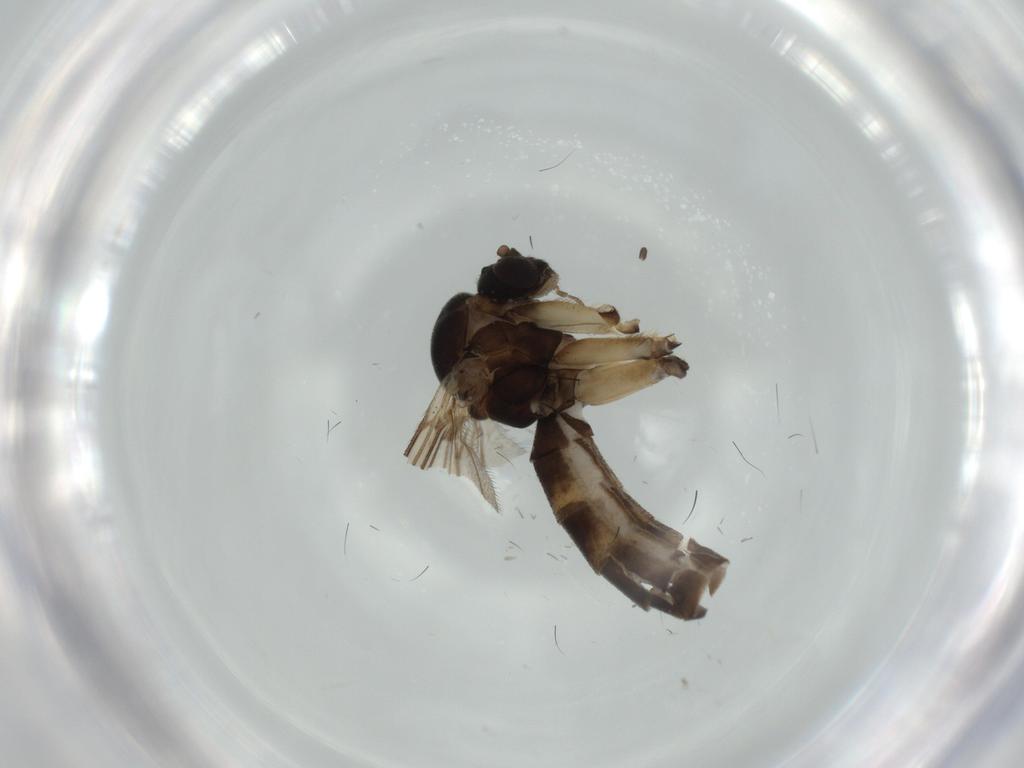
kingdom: Animalia
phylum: Arthropoda
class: Insecta
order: Diptera
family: Mycetophilidae
